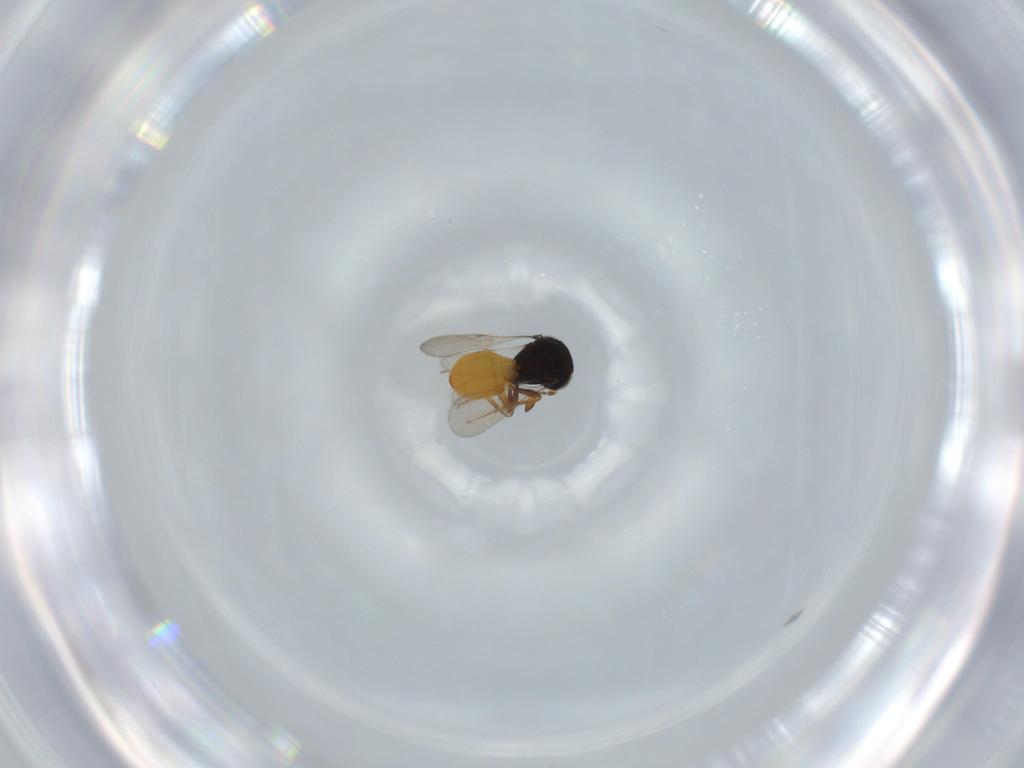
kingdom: Animalia
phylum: Arthropoda
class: Insecta
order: Hymenoptera
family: Scelionidae
